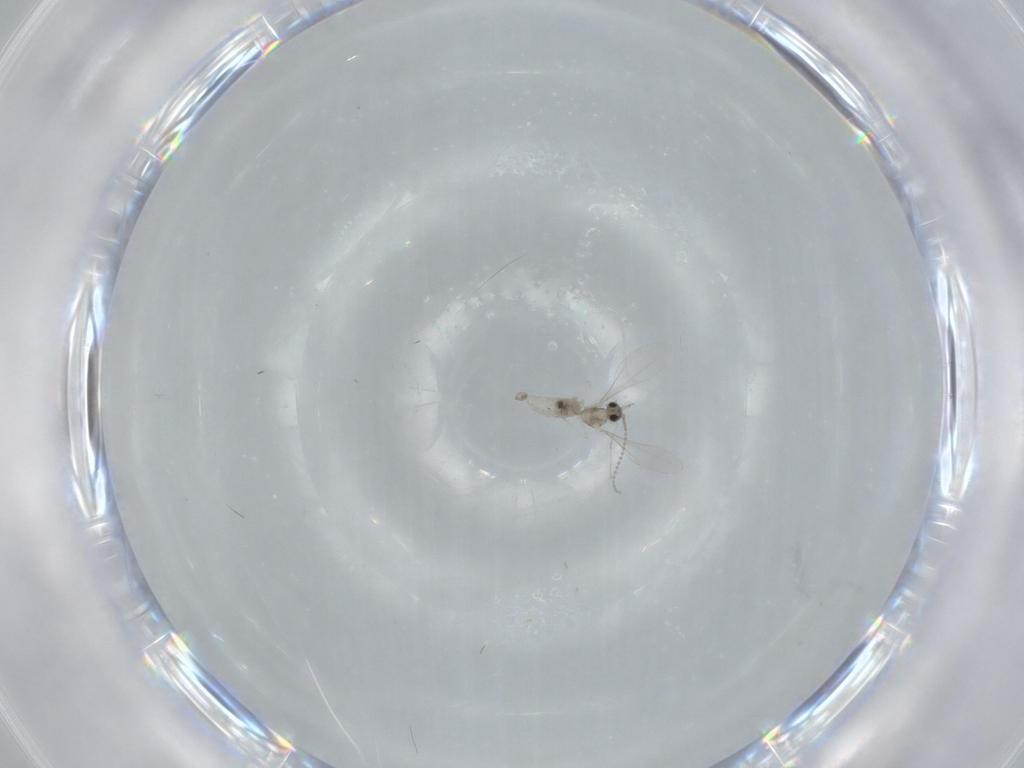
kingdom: Animalia
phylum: Arthropoda
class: Insecta
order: Diptera
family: Cecidomyiidae
